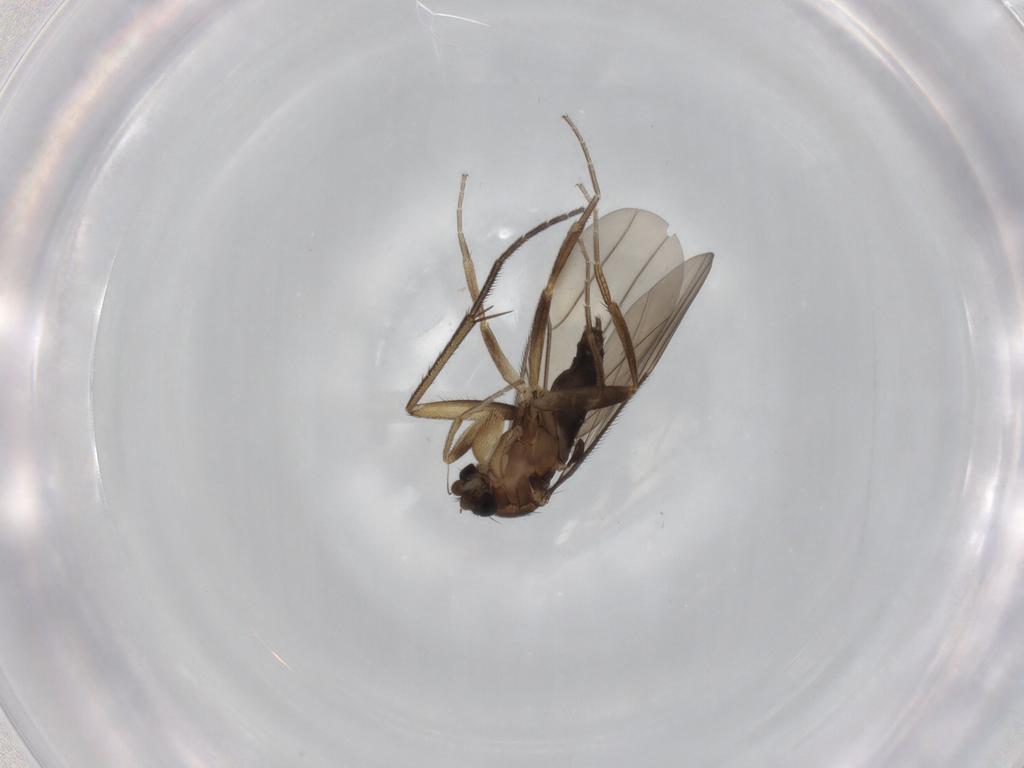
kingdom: Animalia
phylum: Arthropoda
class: Insecta
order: Diptera
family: Phoridae
